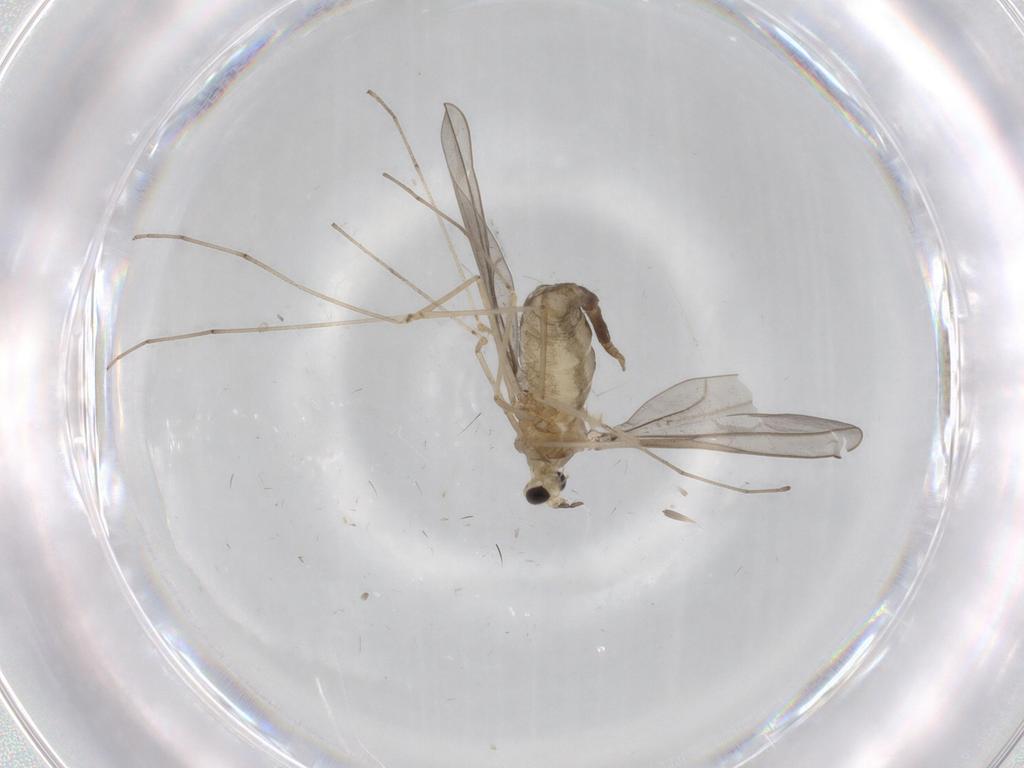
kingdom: Animalia
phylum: Arthropoda
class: Insecta
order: Diptera
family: Cecidomyiidae
